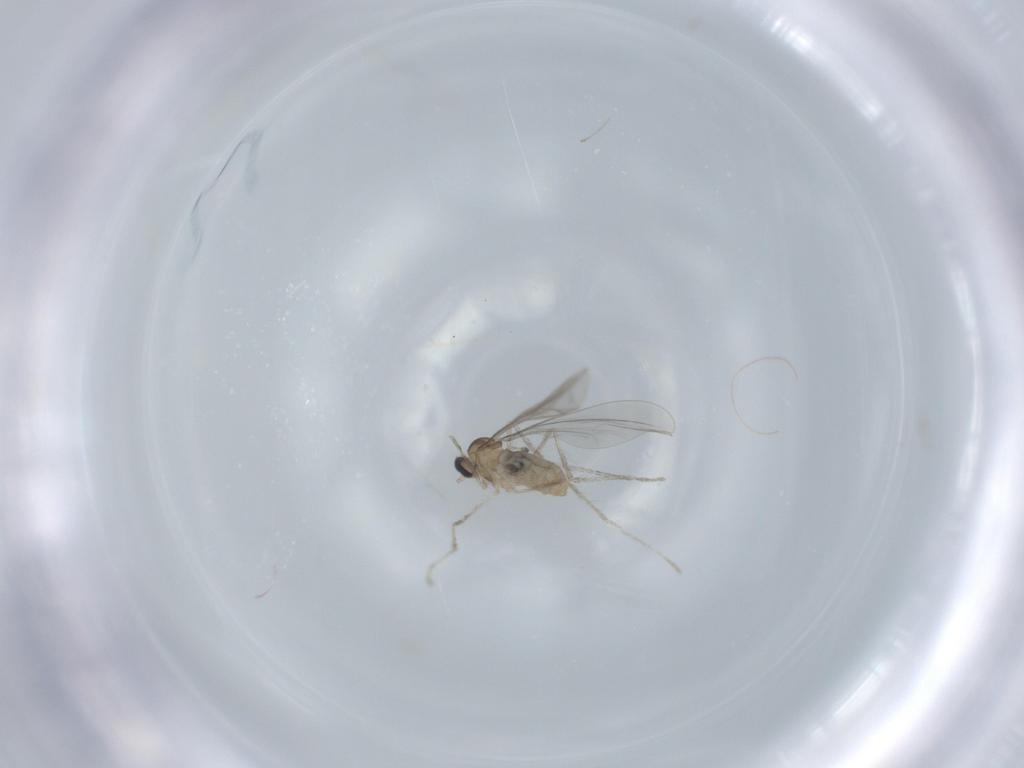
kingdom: Animalia
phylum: Arthropoda
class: Insecta
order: Diptera
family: Cecidomyiidae
